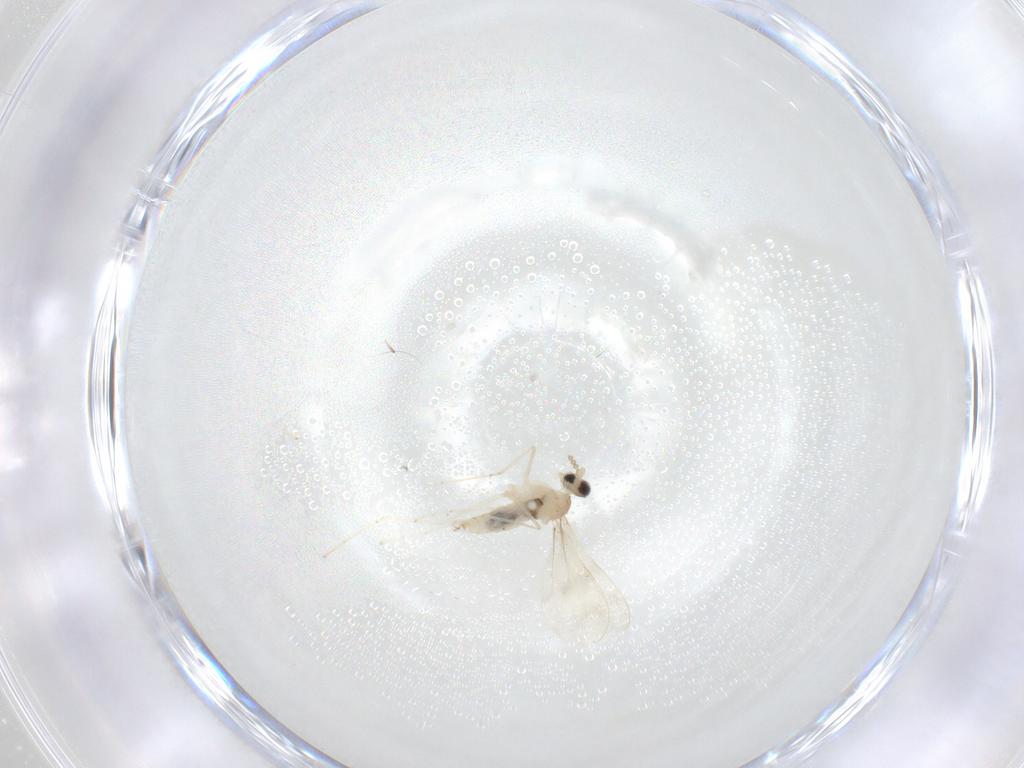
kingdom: Animalia
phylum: Arthropoda
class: Insecta
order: Diptera
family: Cecidomyiidae
